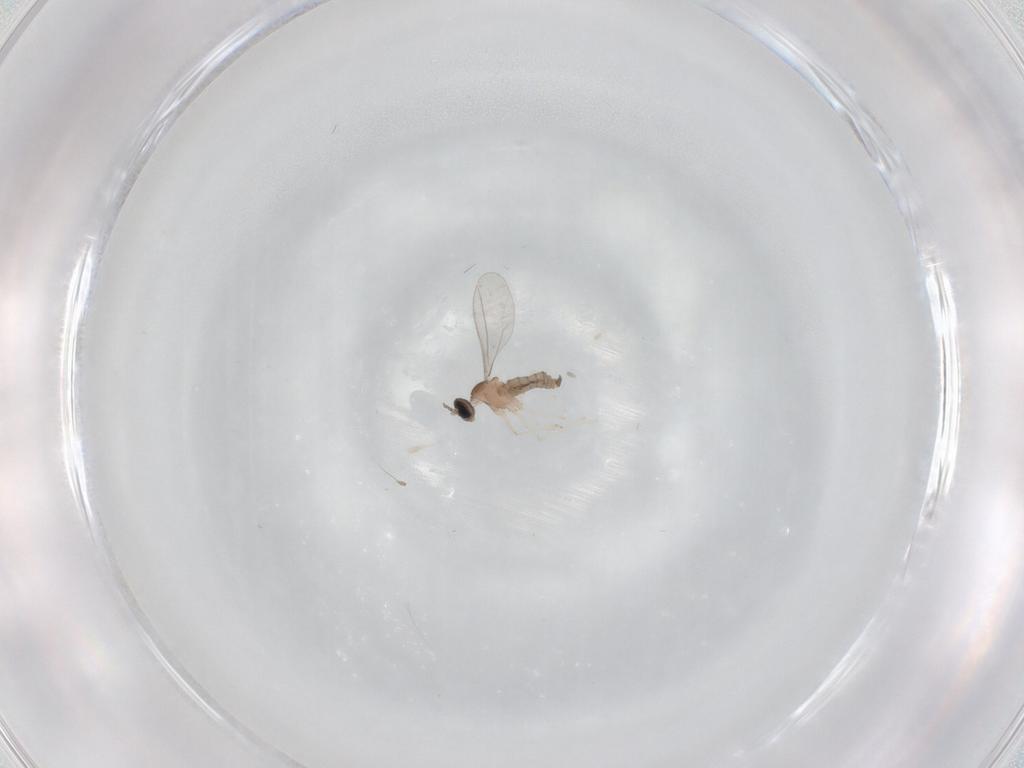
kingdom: Animalia
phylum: Arthropoda
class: Insecta
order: Diptera
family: Cecidomyiidae
